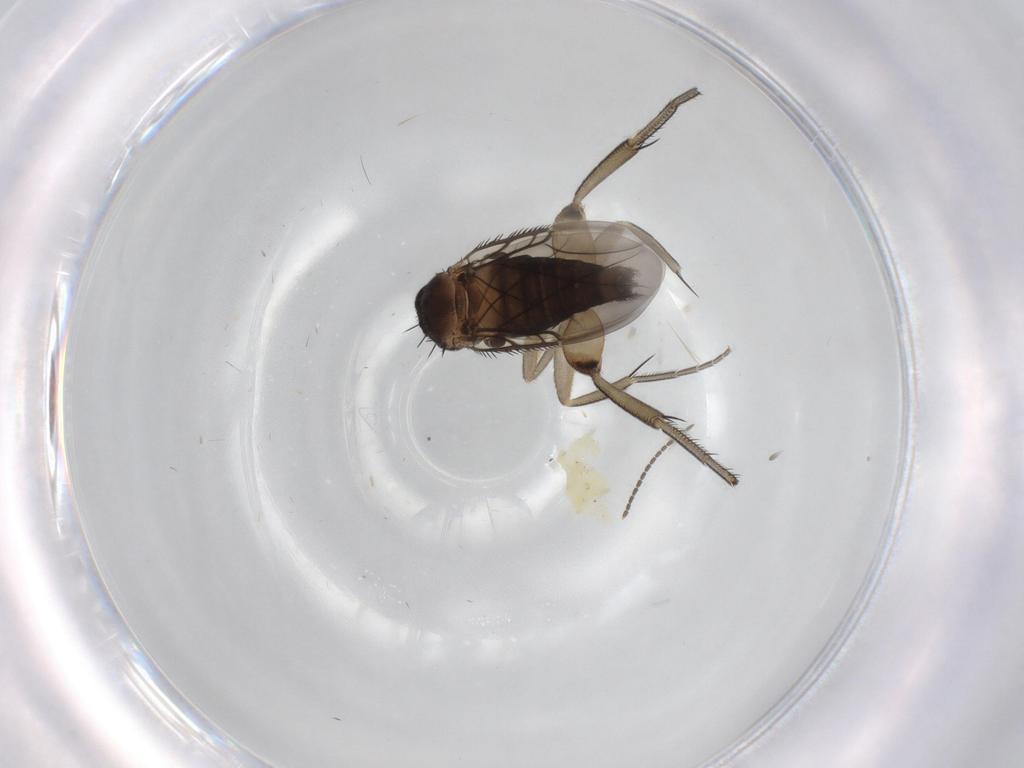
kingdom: Animalia
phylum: Arthropoda
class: Insecta
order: Diptera
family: Phoridae
